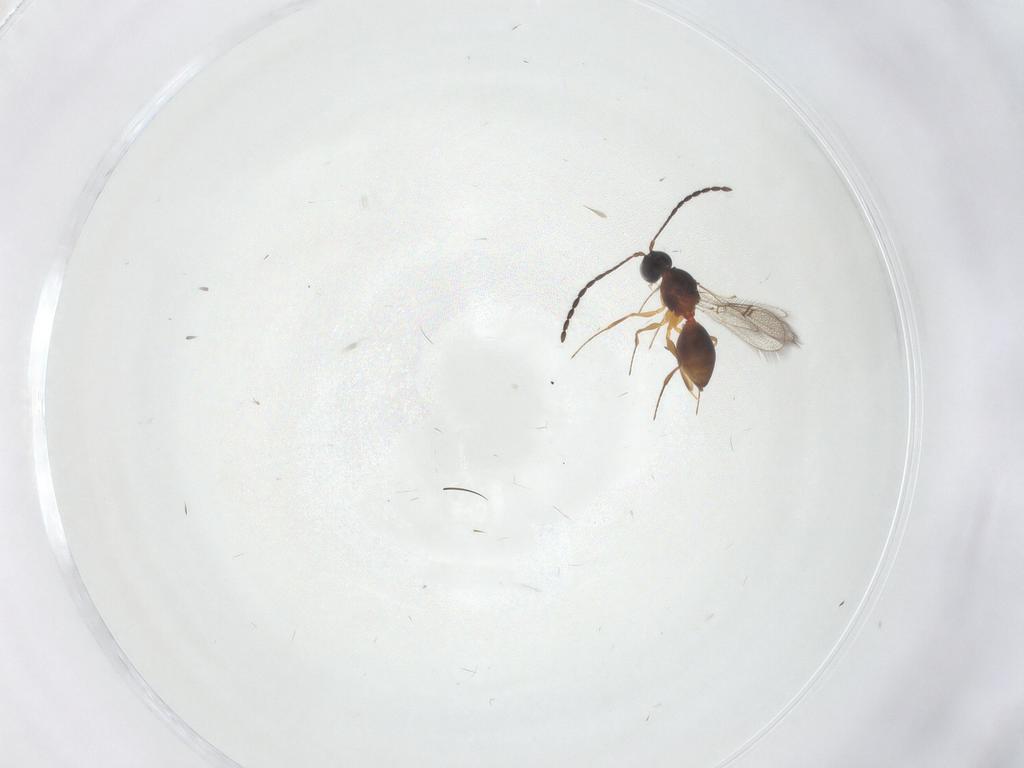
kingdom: Animalia
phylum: Arthropoda
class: Insecta
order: Hymenoptera
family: Figitidae
